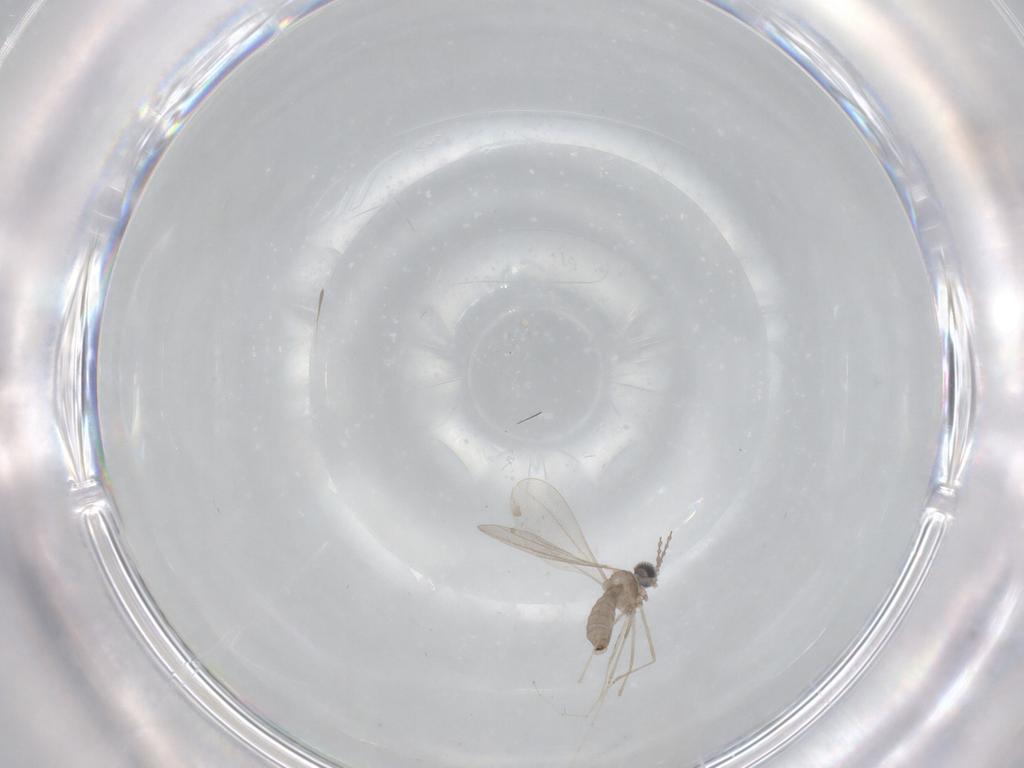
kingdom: Animalia
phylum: Arthropoda
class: Insecta
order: Diptera
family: Cecidomyiidae
